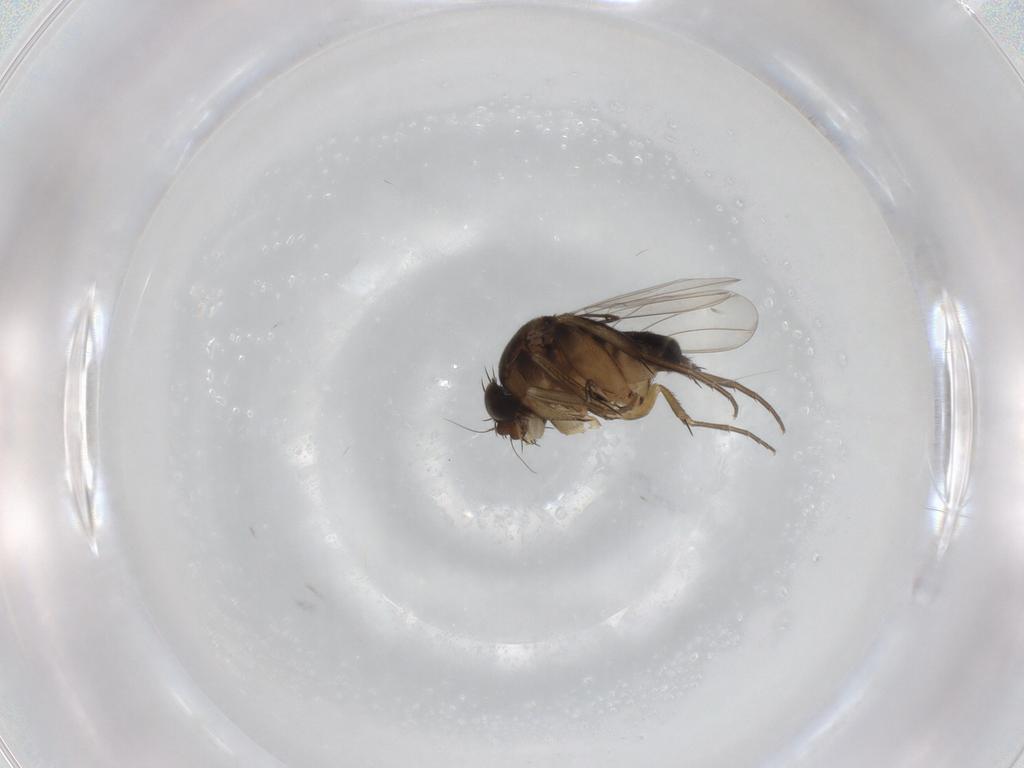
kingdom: Animalia
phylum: Arthropoda
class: Insecta
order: Diptera
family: Phoridae
